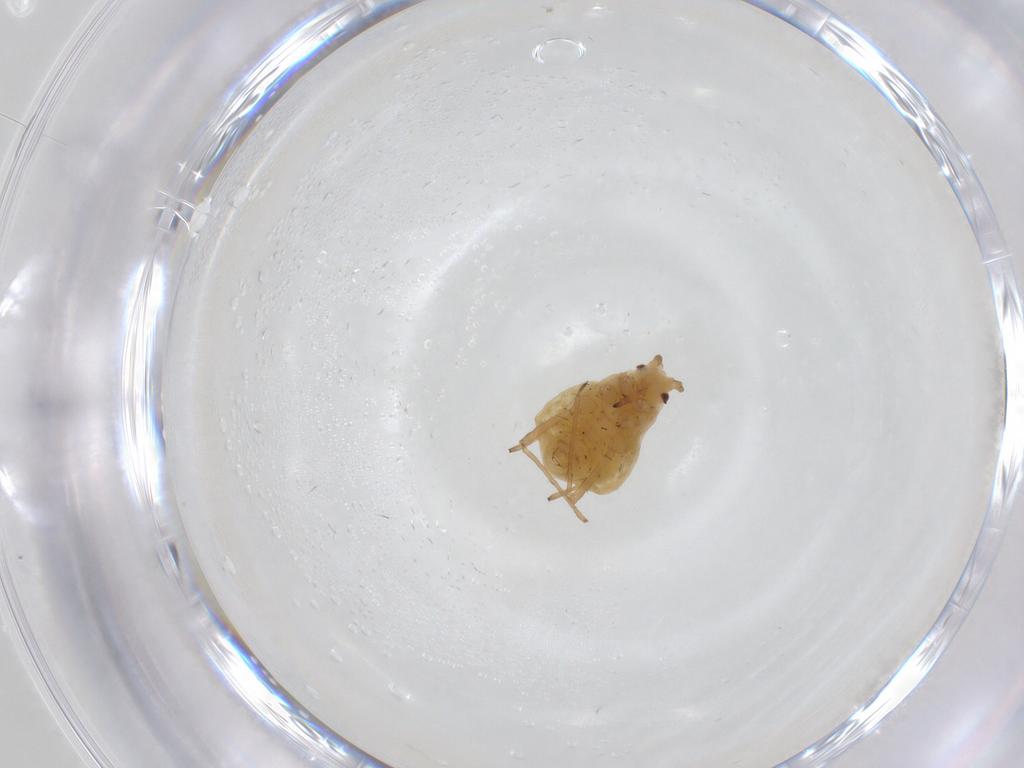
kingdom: Animalia
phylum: Arthropoda
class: Insecta
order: Hemiptera
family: Aphididae
